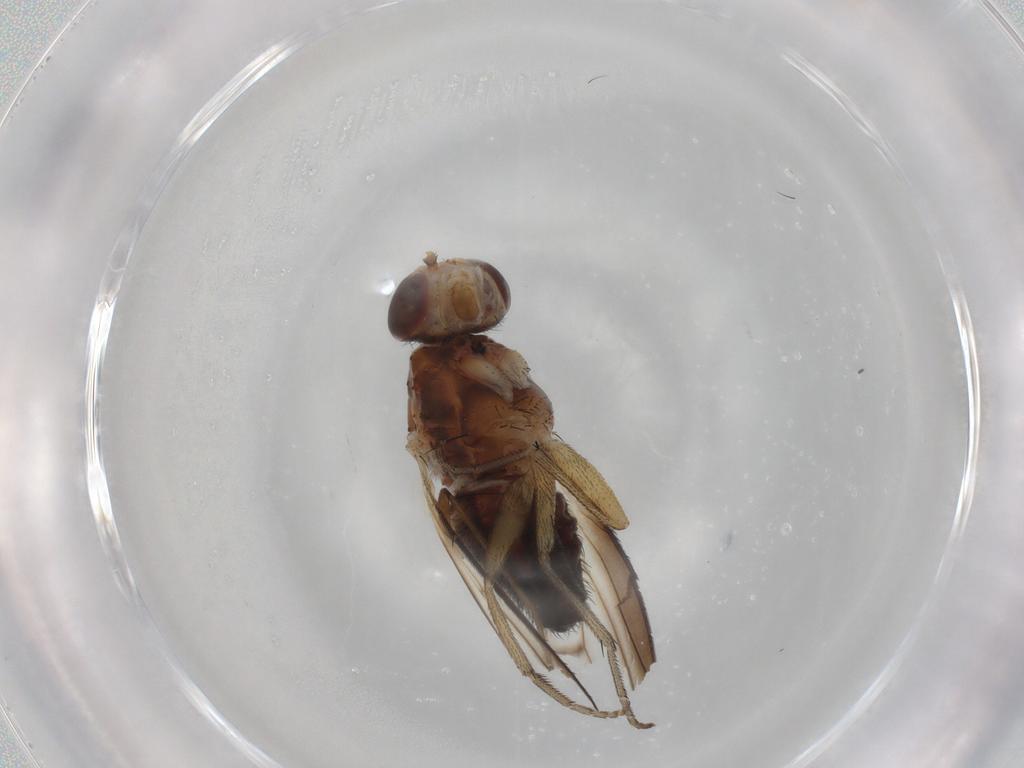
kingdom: Animalia
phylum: Arthropoda
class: Insecta
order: Diptera
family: Heleomyzidae
